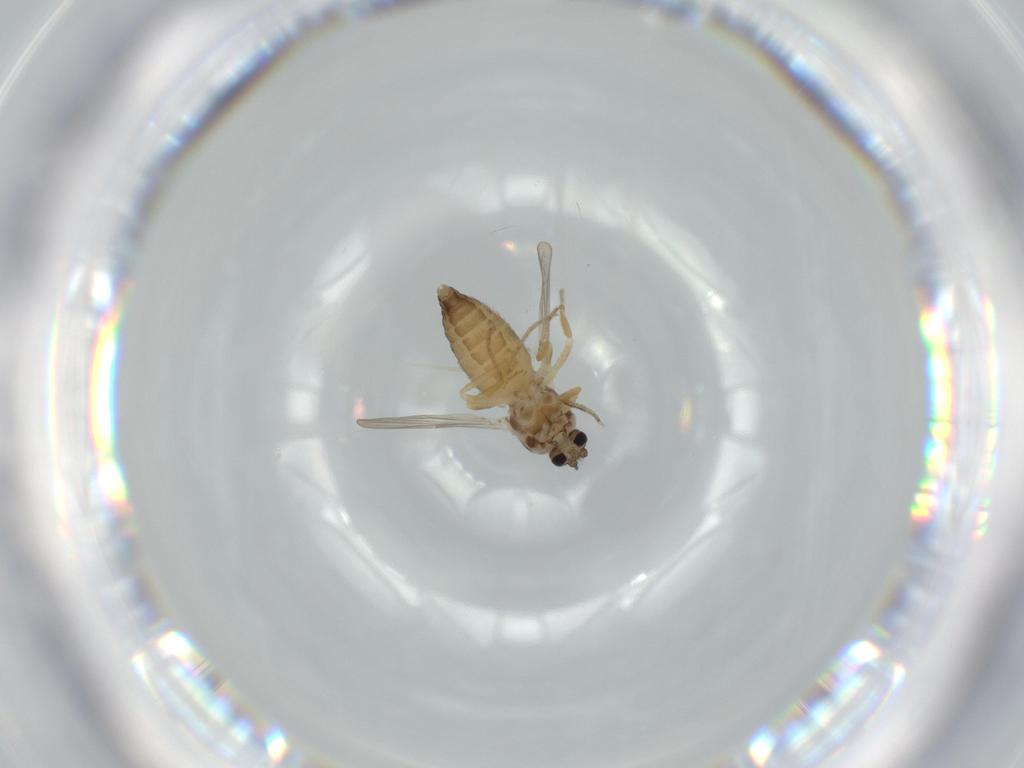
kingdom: Animalia
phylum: Arthropoda
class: Insecta
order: Diptera
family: Ceratopogonidae
